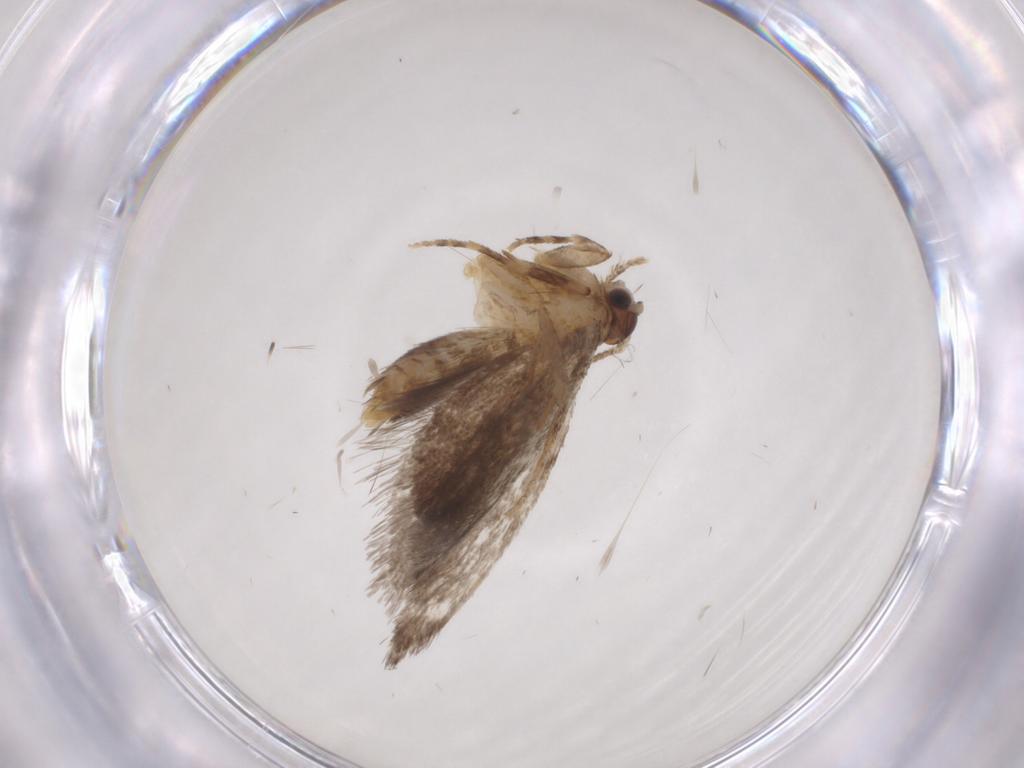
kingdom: Animalia
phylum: Arthropoda
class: Insecta
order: Lepidoptera
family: Dryadaulidae
